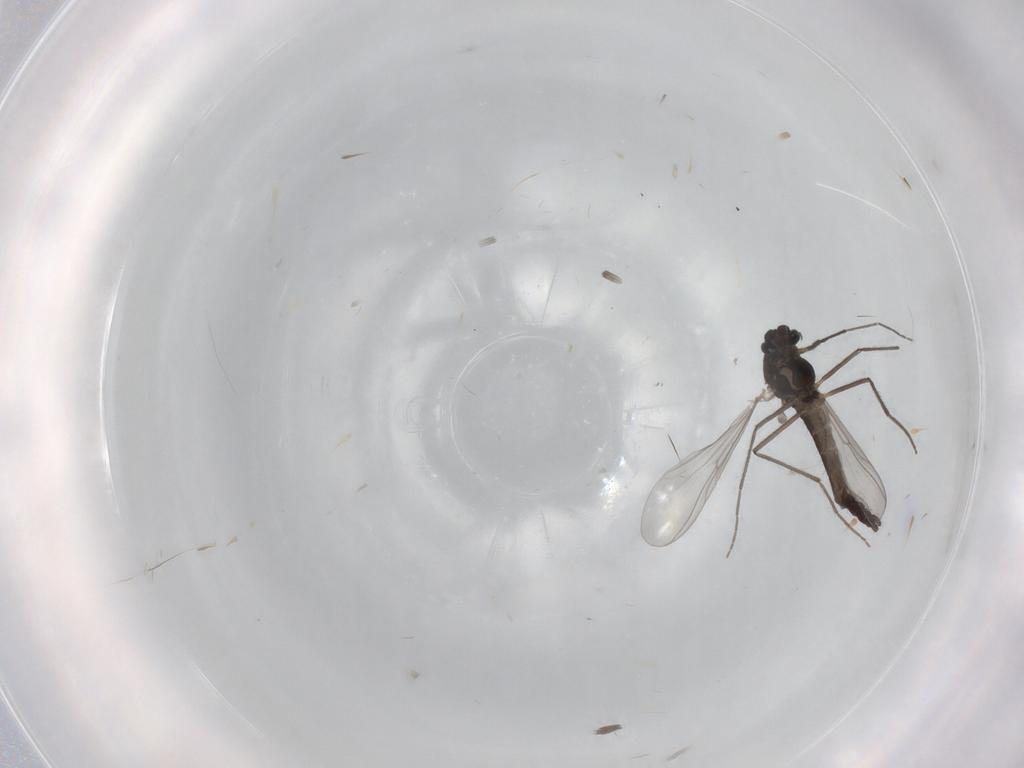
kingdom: Animalia
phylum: Arthropoda
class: Insecta
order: Diptera
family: Chironomidae
